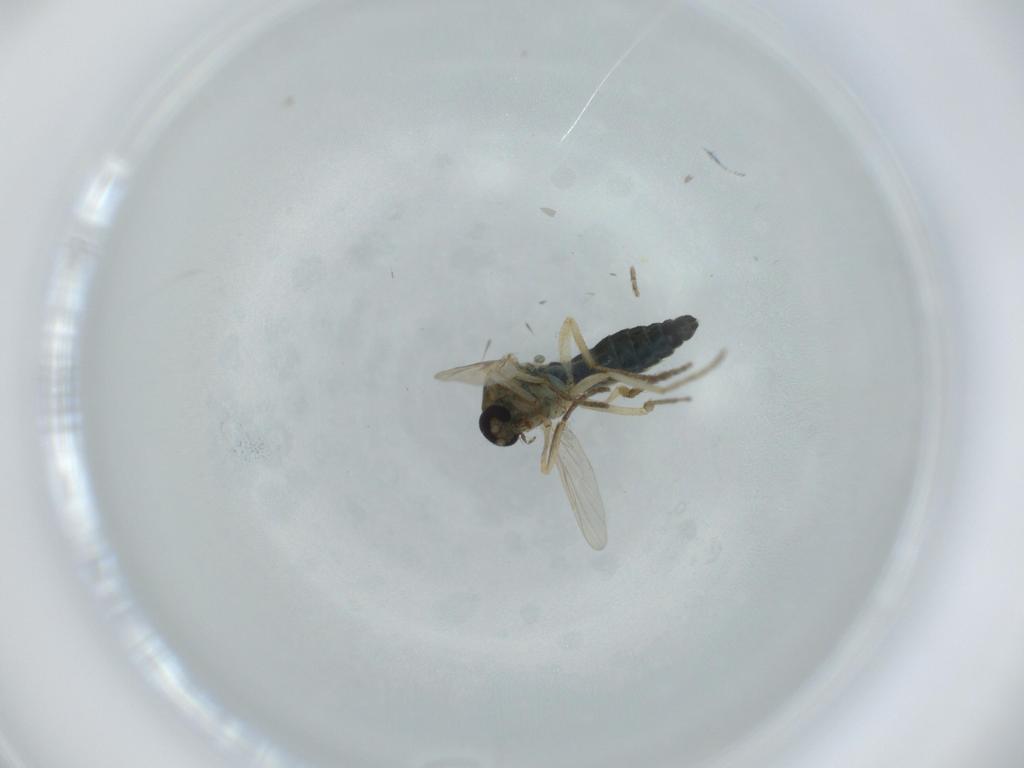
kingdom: Animalia
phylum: Arthropoda
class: Insecta
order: Diptera
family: Ceratopogonidae
